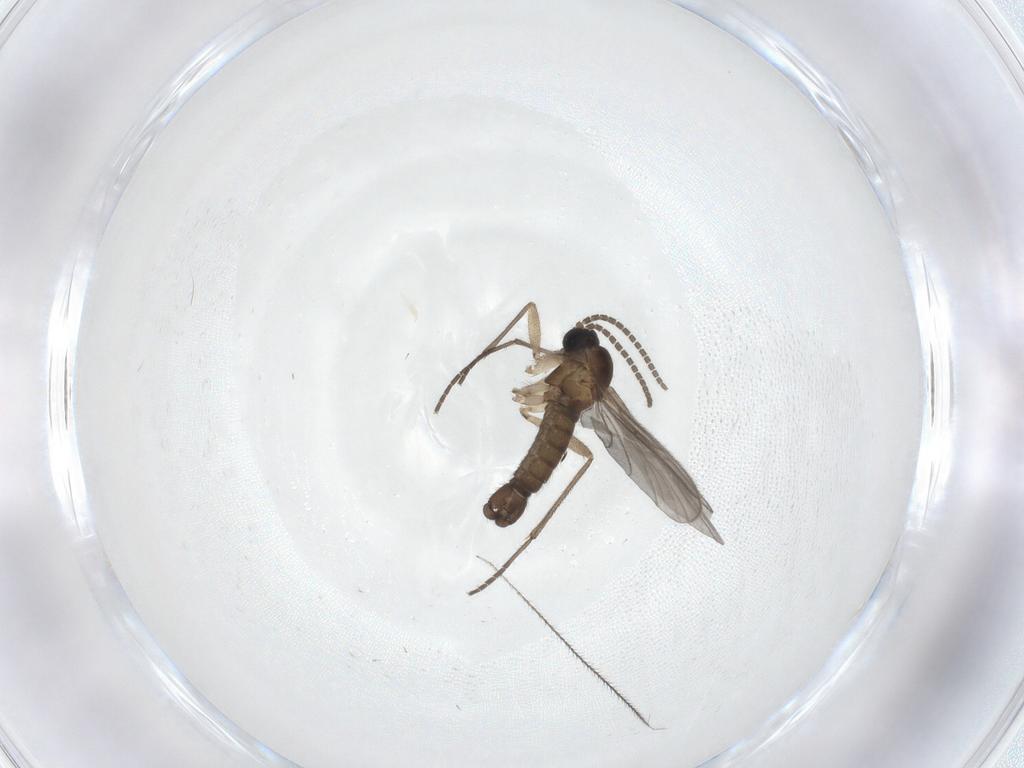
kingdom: Animalia
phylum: Arthropoda
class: Insecta
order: Diptera
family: Sciaridae
